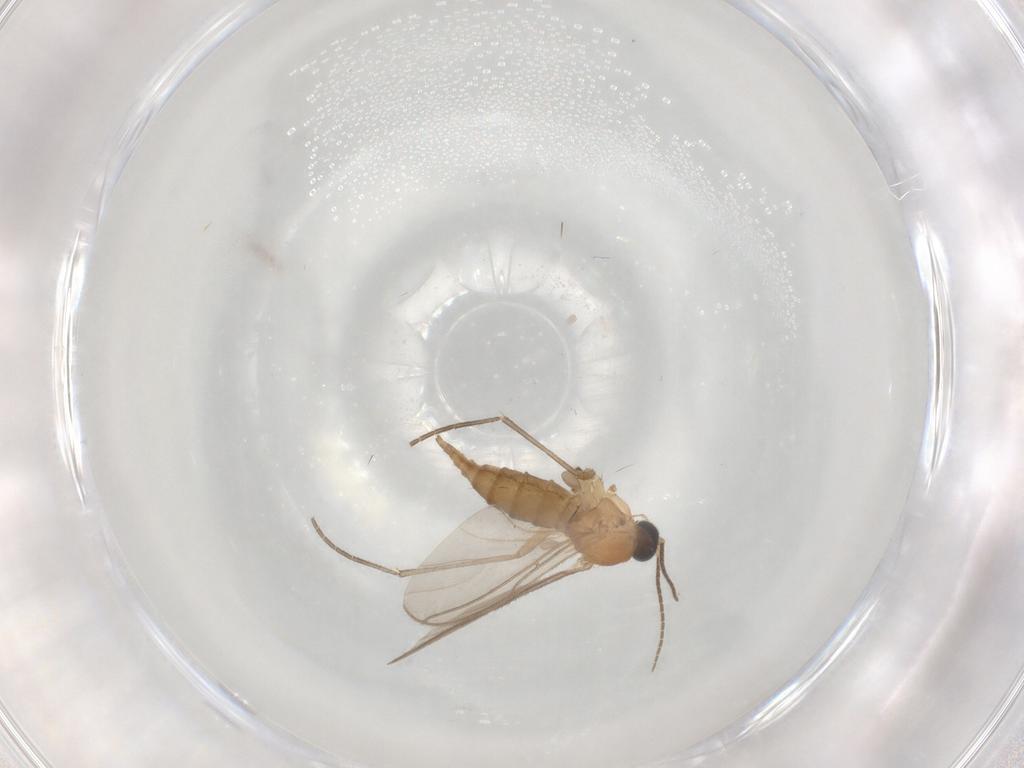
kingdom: Animalia
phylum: Arthropoda
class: Insecta
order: Diptera
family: Sciaridae
